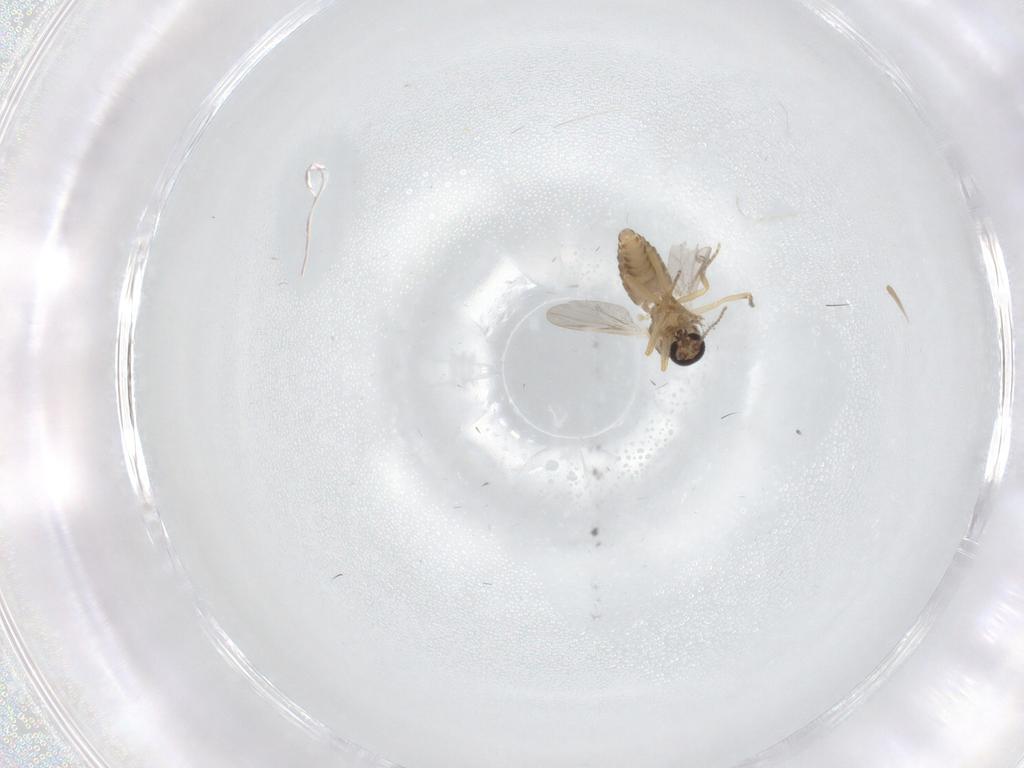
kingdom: Animalia
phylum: Arthropoda
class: Insecta
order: Diptera
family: Ceratopogonidae
